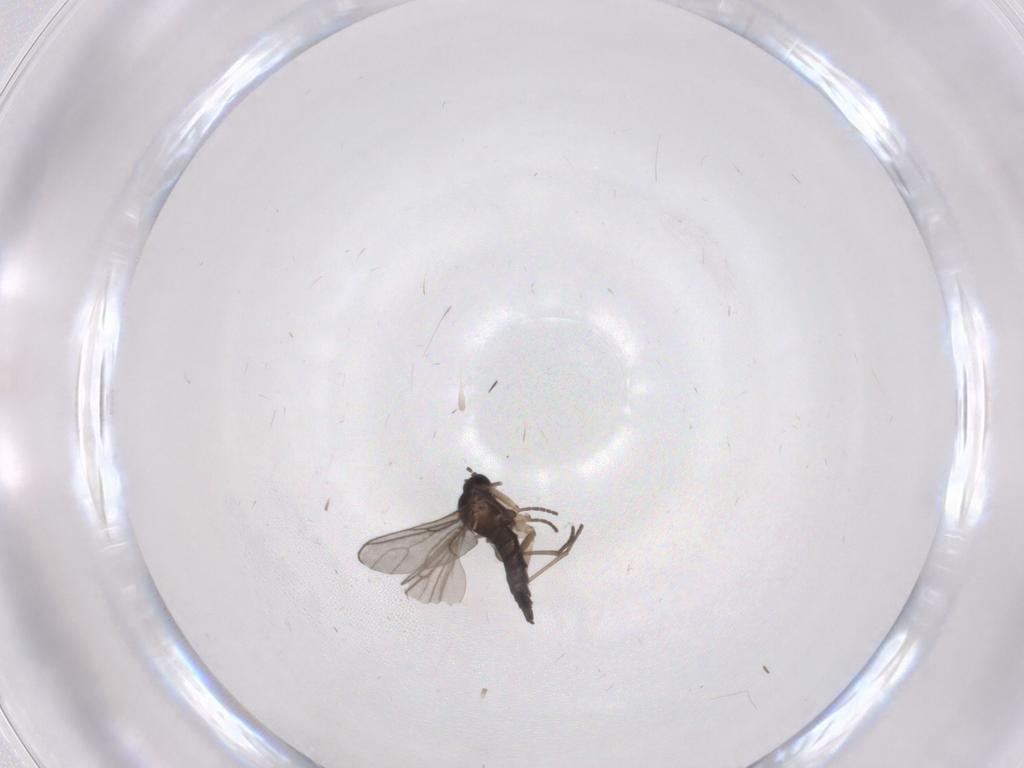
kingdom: Animalia
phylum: Arthropoda
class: Insecta
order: Diptera
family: Sciaridae
